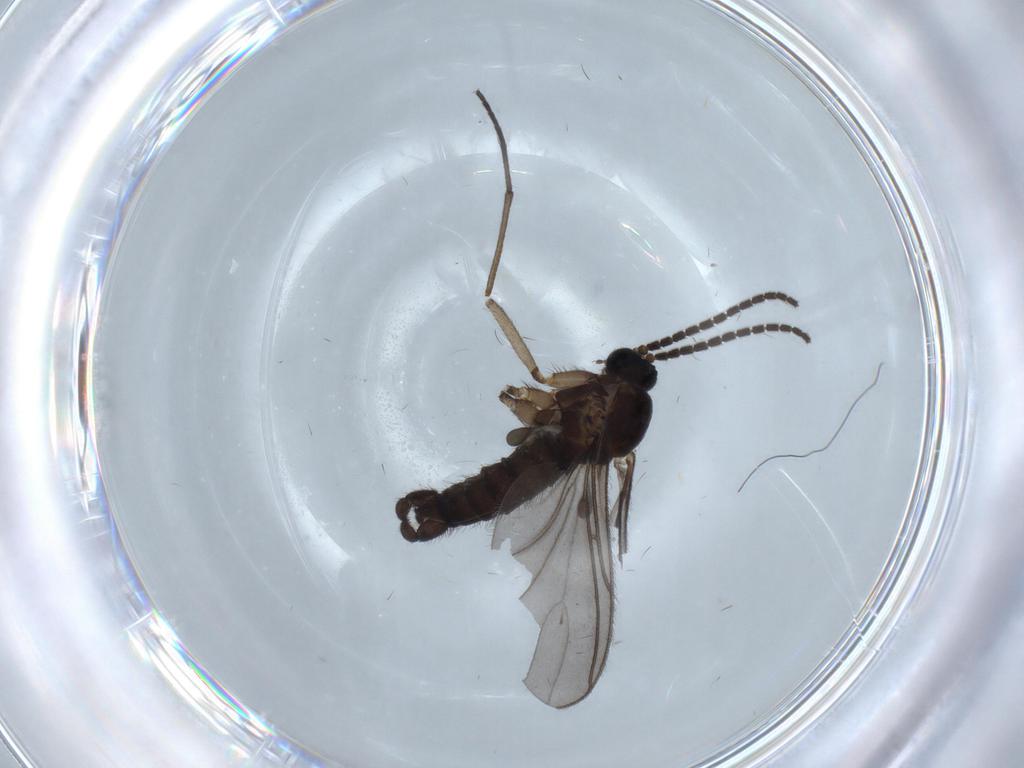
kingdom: Animalia
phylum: Arthropoda
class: Insecta
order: Diptera
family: Sciaridae
